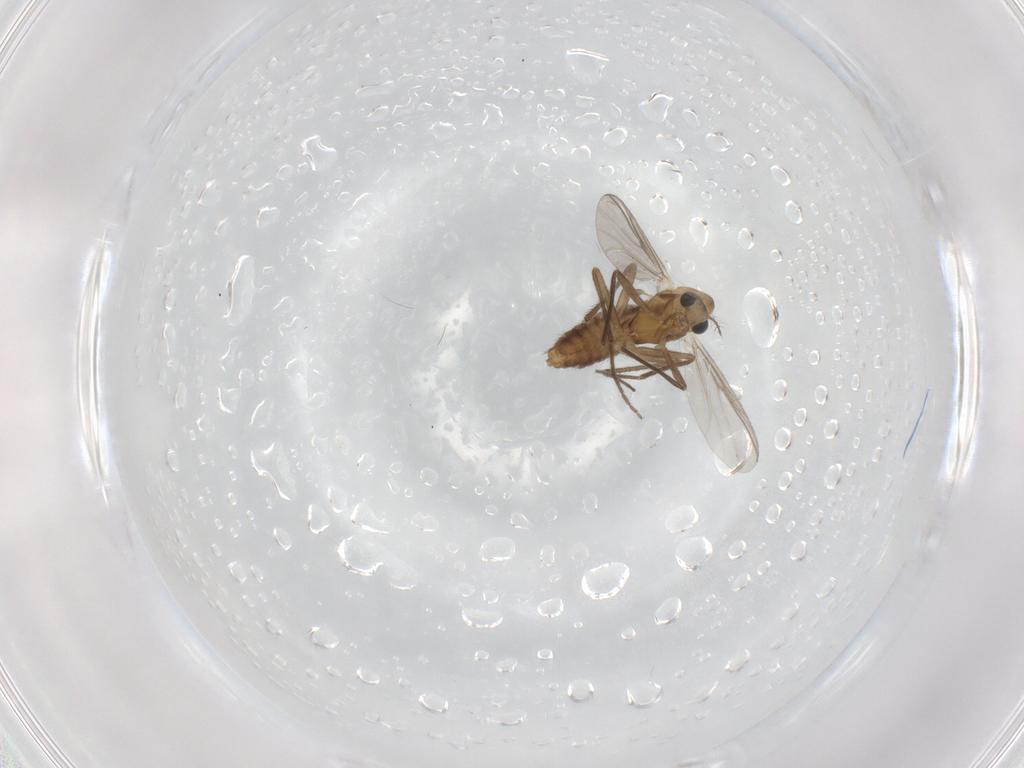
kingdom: Animalia
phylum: Arthropoda
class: Insecta
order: Diptera
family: Chironomidae
